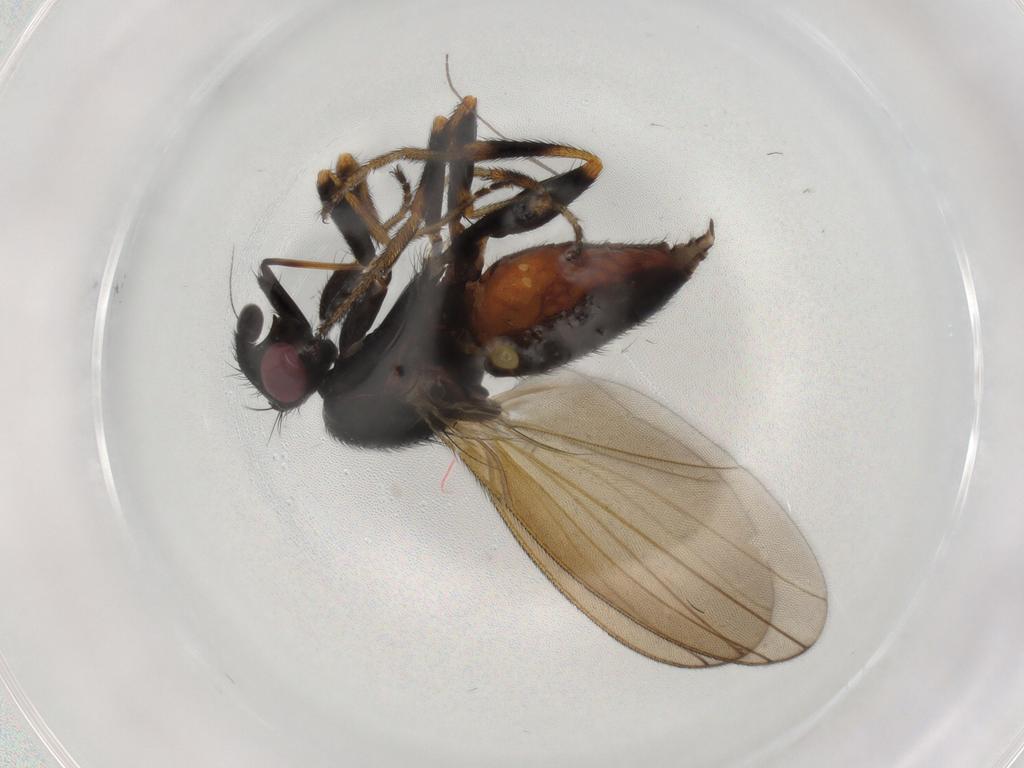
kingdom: Animalia
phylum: Arthropoda
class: Insecta
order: Diptera
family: Milichiidae
